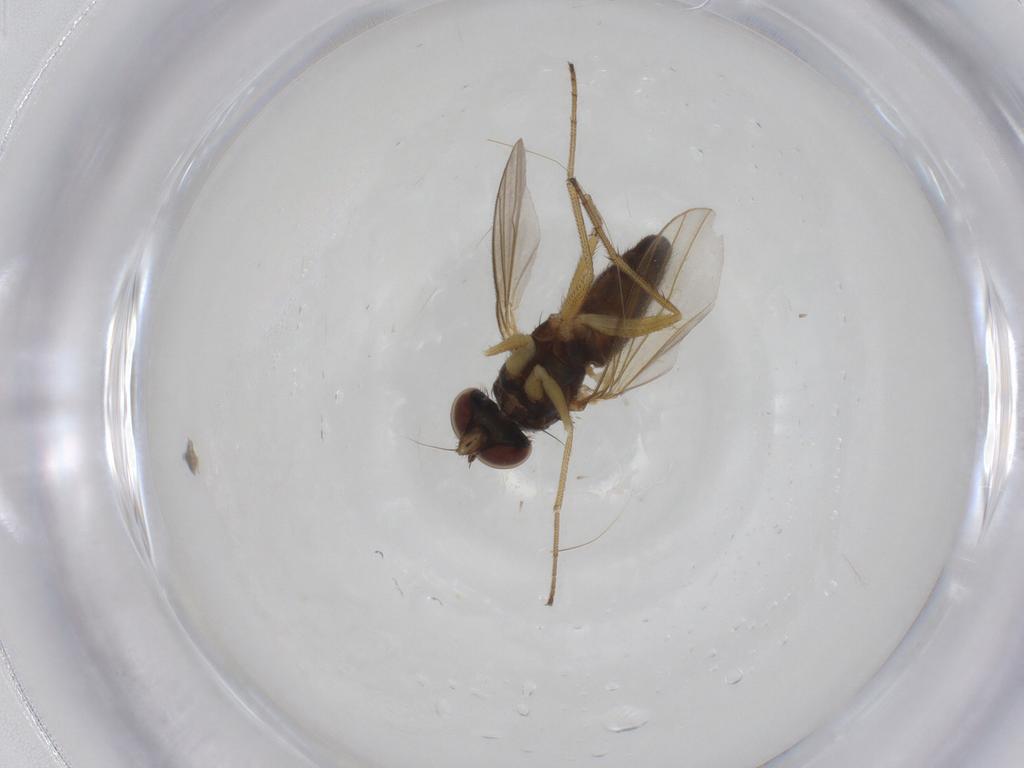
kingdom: Animalia
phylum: Arthropoda
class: Insecta
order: Diptera
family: Dolichopodidae
